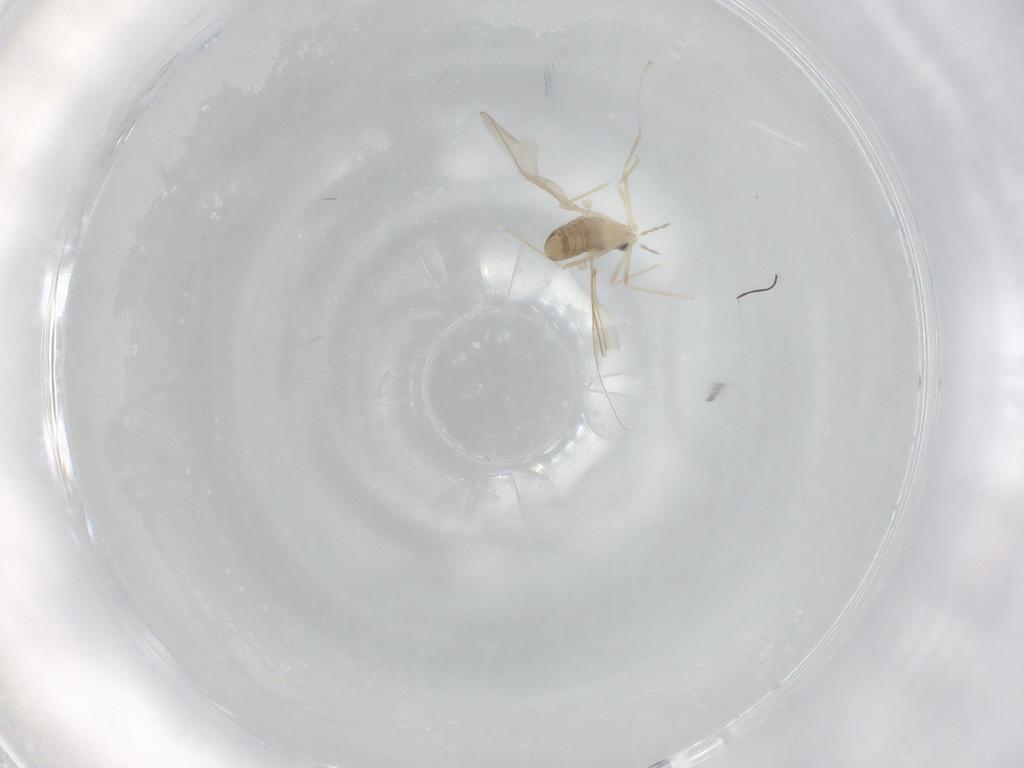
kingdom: Animalia
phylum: Arthropoda
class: Insecta
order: Diptera
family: Cecidomyiidae
